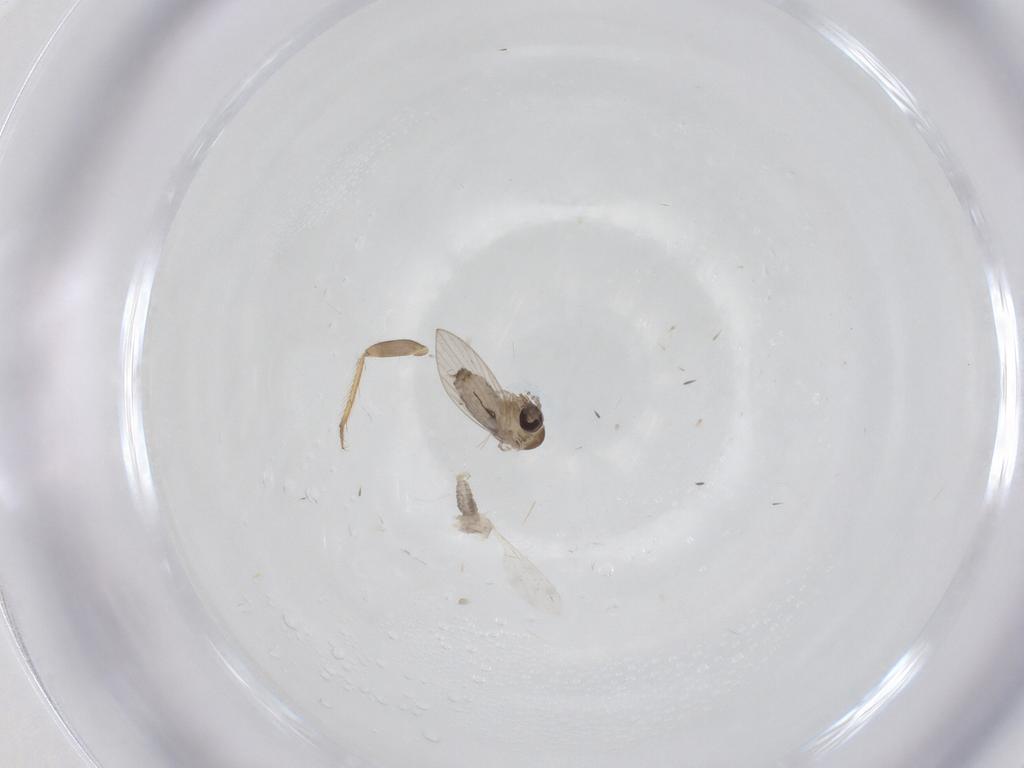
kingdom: Animalia
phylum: Arthropoda
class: Insecta
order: Diptera
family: Psychodidae
